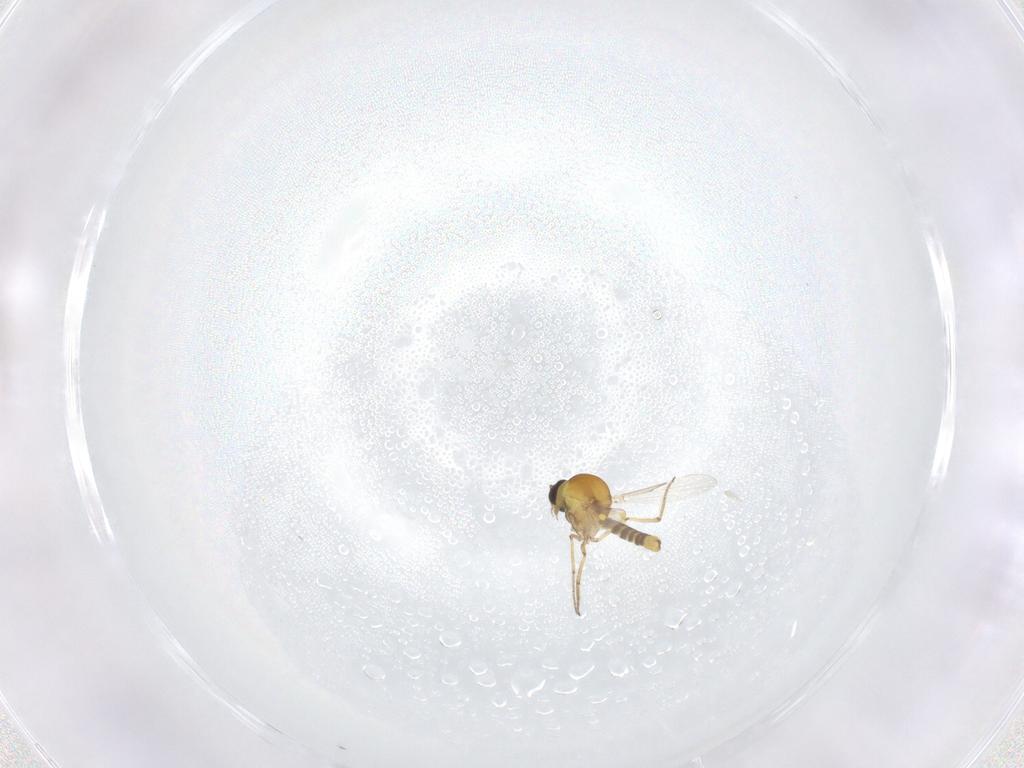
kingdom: Animalia
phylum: Arthropoda
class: Insecta
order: Diptera
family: Ceratopogonidae
